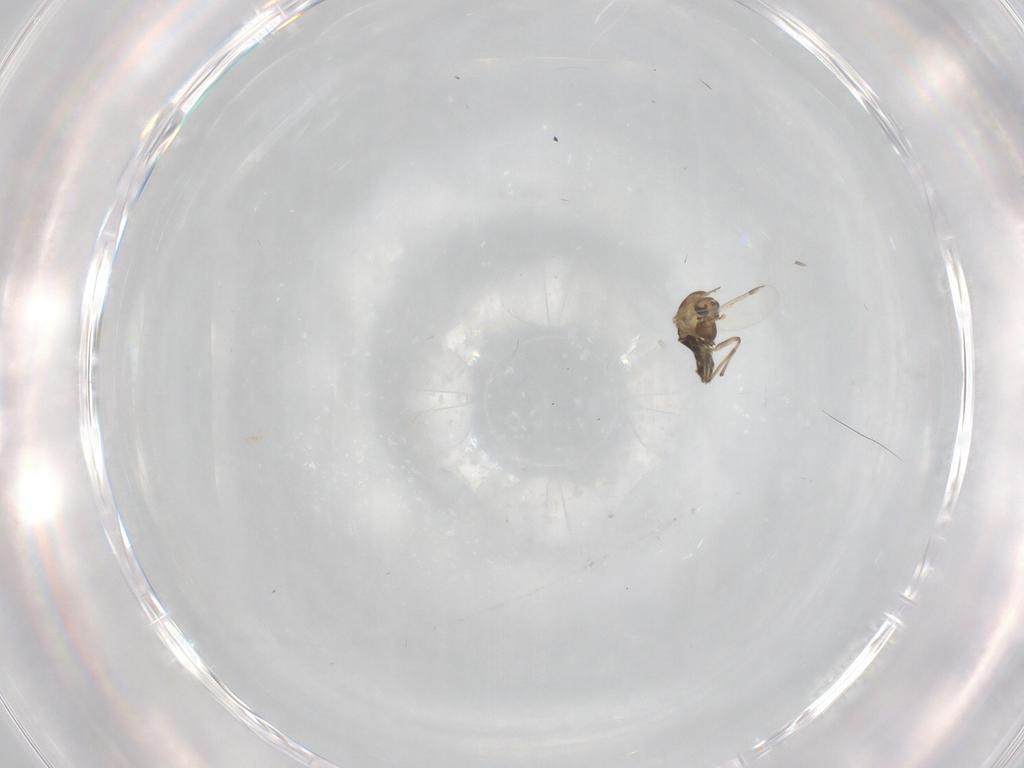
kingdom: Animalia
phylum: Arthropoda
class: Insecta
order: Diptera
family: Chironomidae
